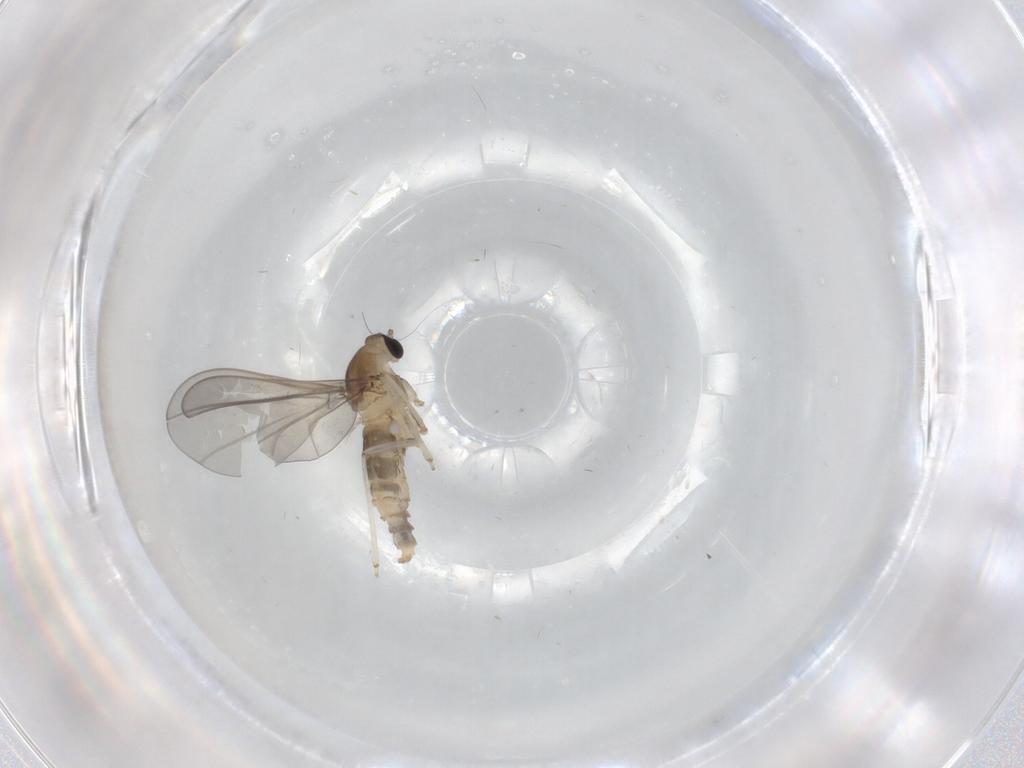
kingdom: Animalia
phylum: Arthropoda
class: Insecta
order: Diptera
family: Cecidomyiidae
